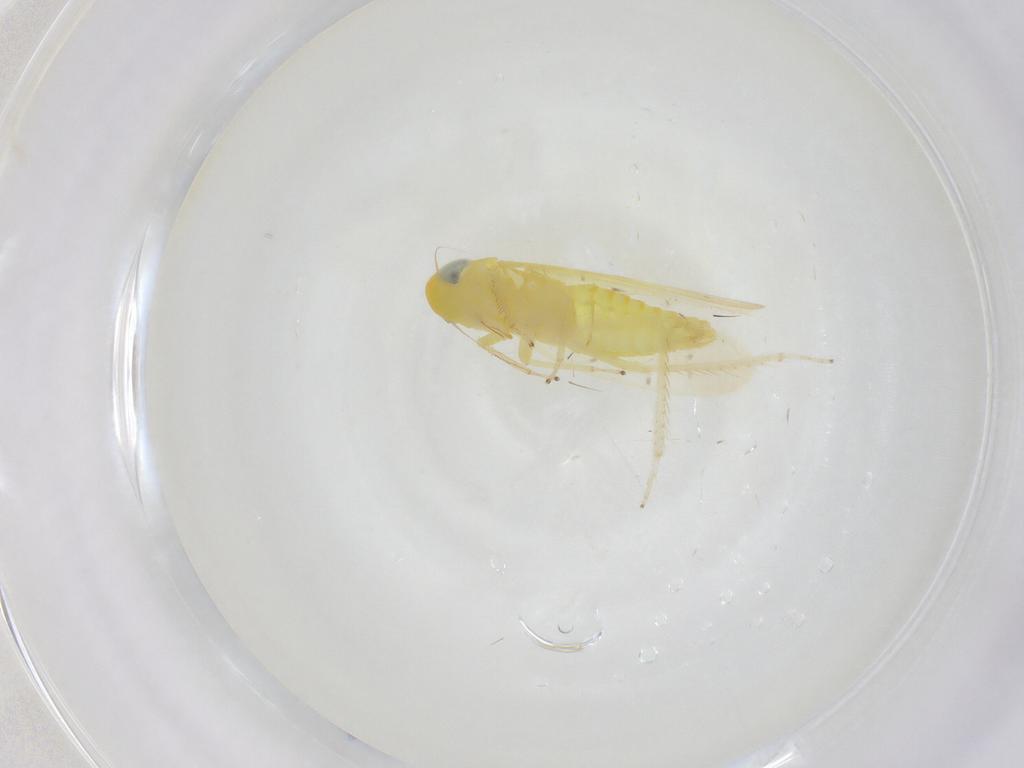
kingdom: Animalia
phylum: Arthropoda
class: Insecta
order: Hemiptera
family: Cicadellidae
